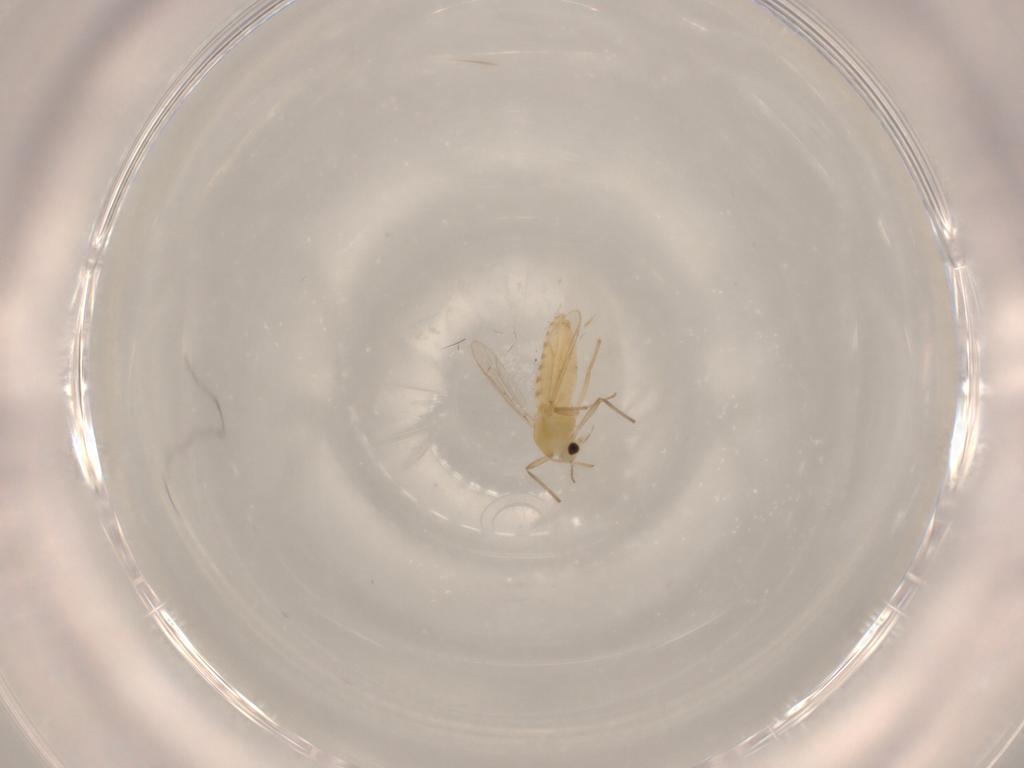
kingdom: Animalia
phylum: Arthropoda
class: Insecta
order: Diptera
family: Chironomidae
